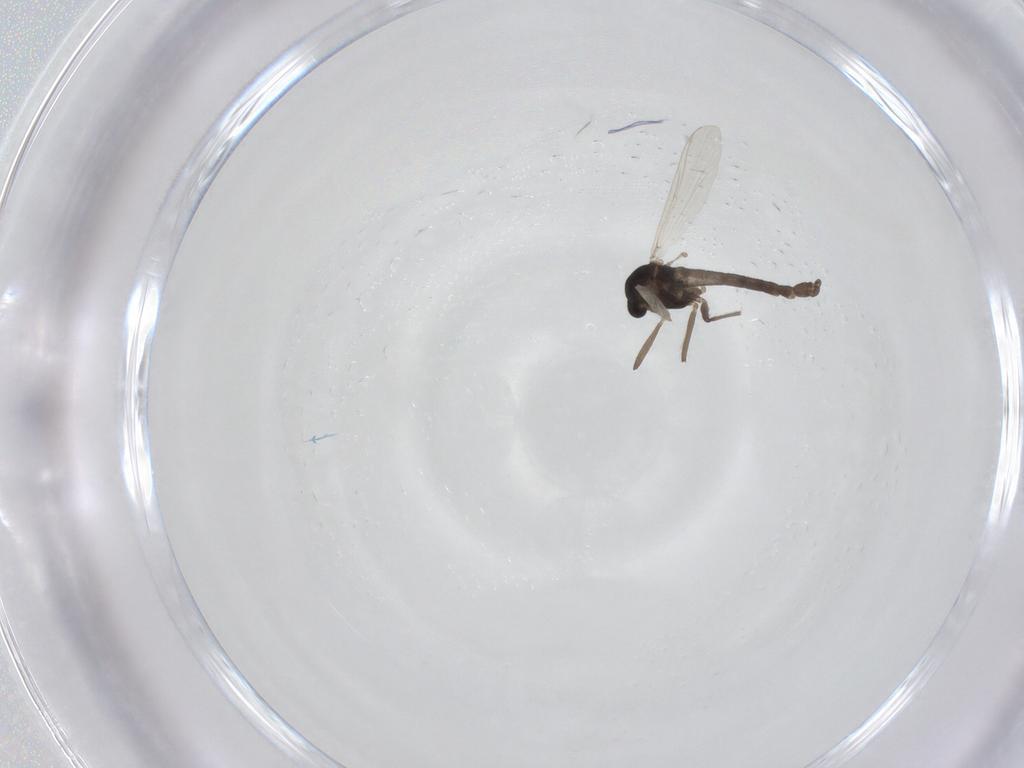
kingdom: Animalia
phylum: Arthropoda
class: Insecta
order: Diptera
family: Chironomidae
